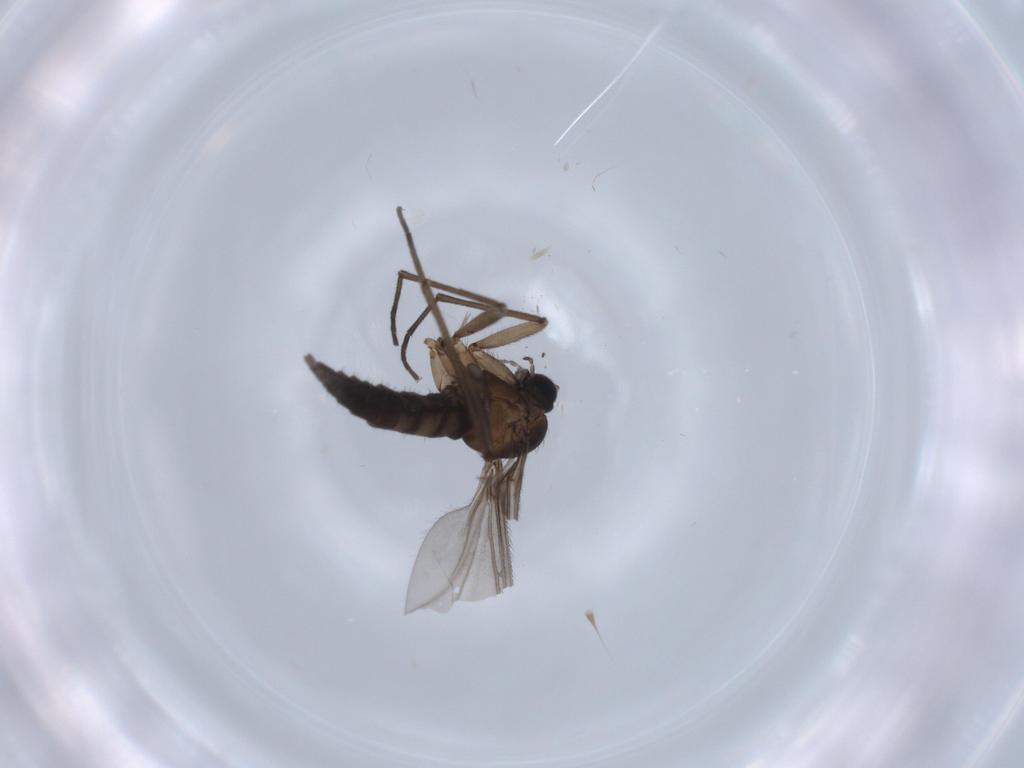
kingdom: Animalia
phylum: Arthropoda
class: Insecta
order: Diptera
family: Sciaridae
